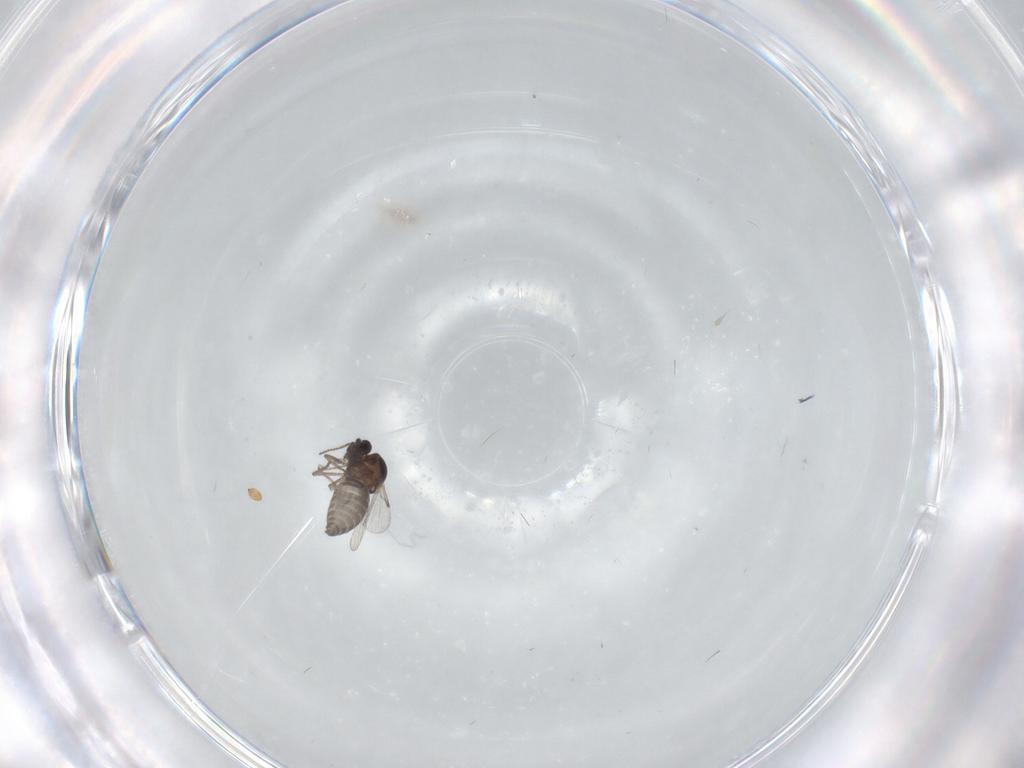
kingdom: Animalia
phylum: Arthropoda
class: Insecta
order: Diptera
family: Ceratopogonidae
